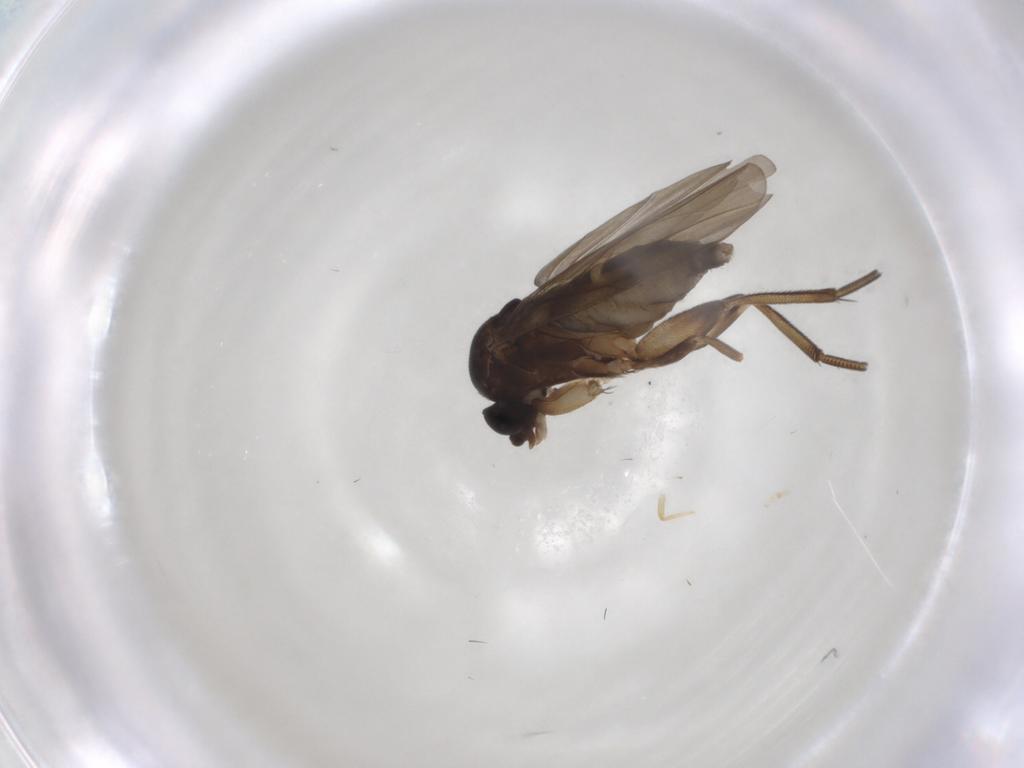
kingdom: Animalia
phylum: Arthropoda
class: Insecta
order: Diptera
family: Phoridae
